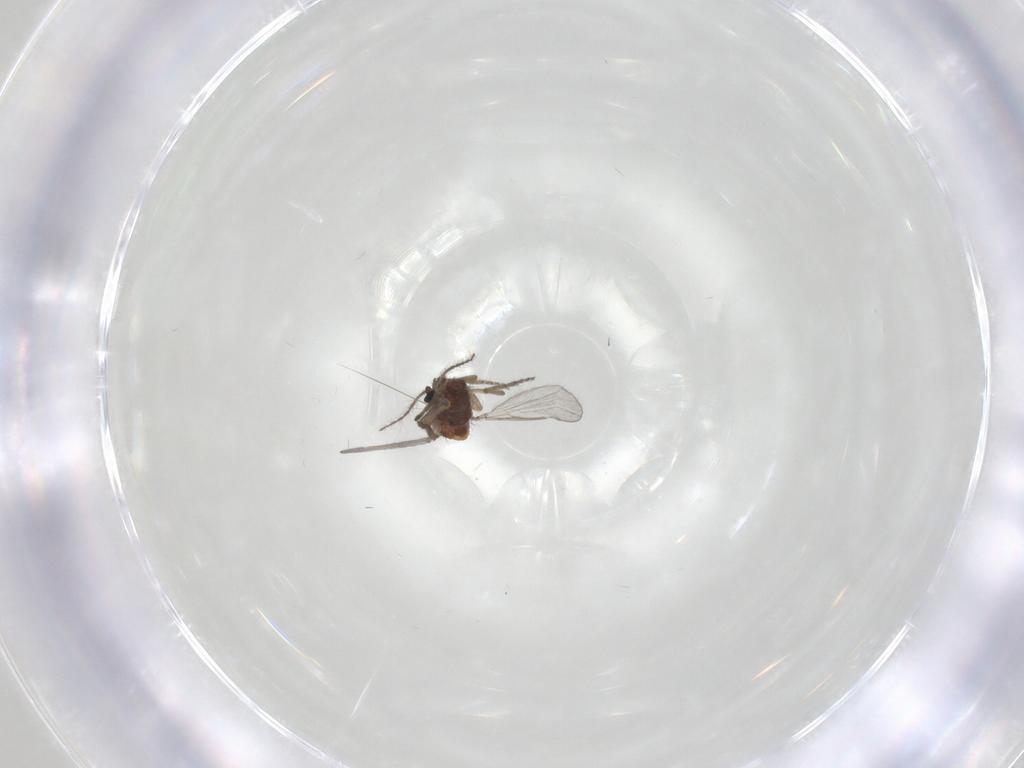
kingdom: Animalia
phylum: Arthropoda
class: Insecta
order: Diptera
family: Ceratopogonidae
